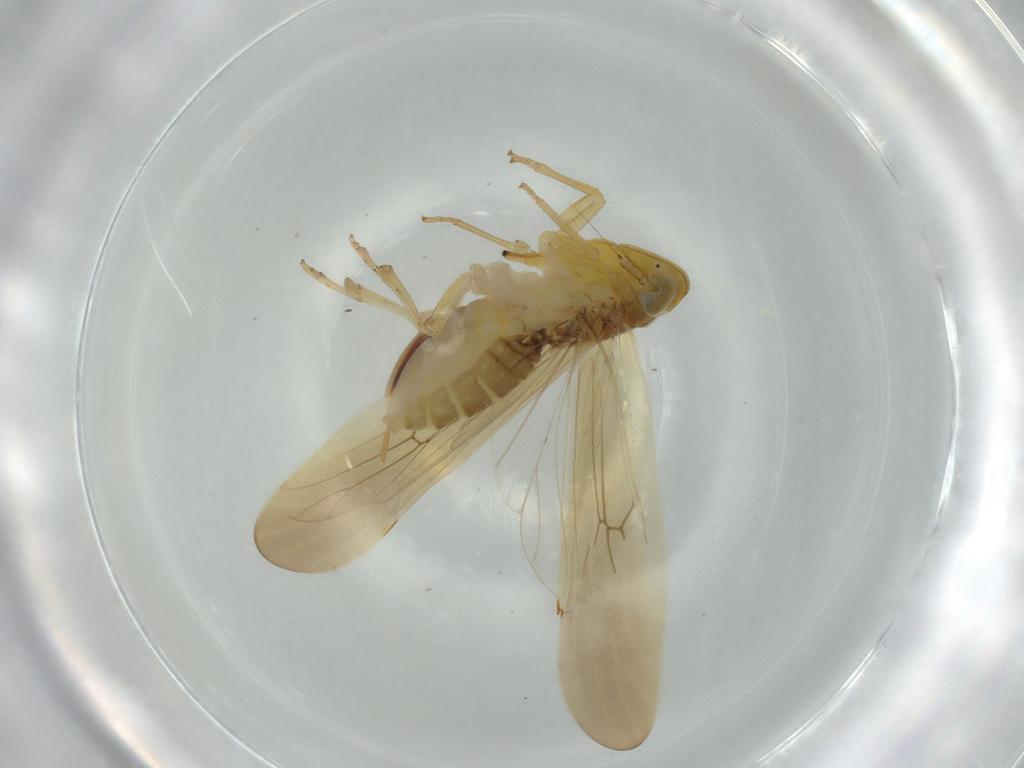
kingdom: Animalia
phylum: Arthropoda
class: Insecta
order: Hemiptera
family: Delphacidae
